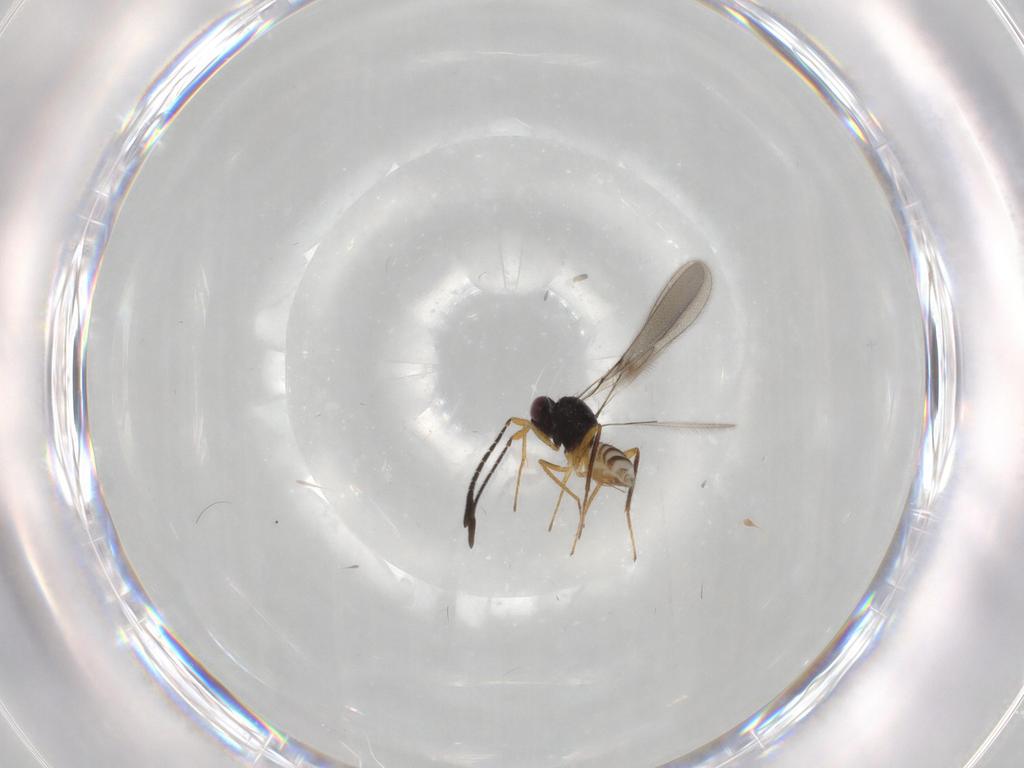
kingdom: Animalia
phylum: Arthropoda
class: Insecta
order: Hymenoptera
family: Mymaridae
